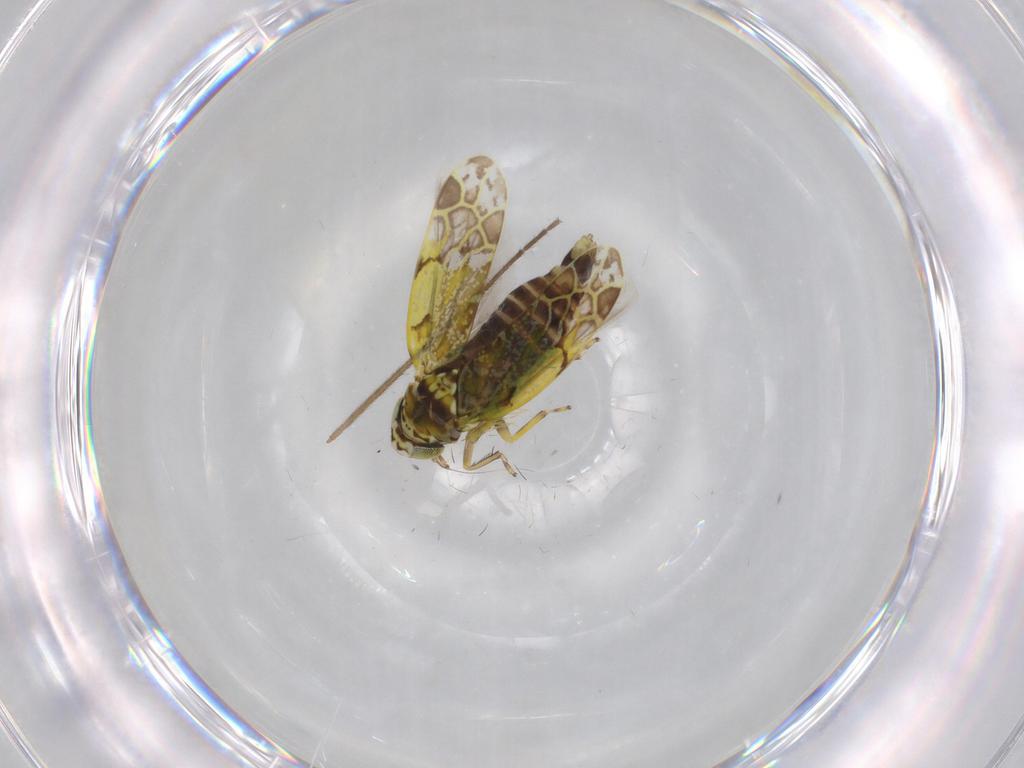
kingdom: Animalia
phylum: Arthropoda
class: Insecta
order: Hemiptera
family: Cicadellidae
